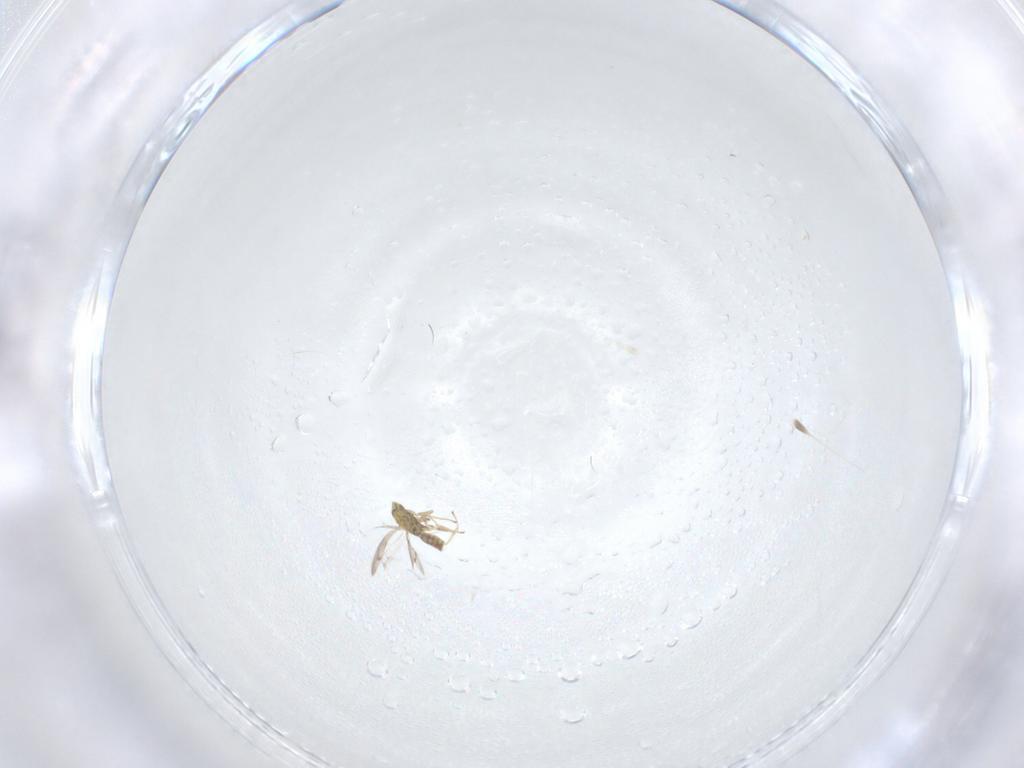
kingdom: Animalia
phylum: Arthropoda
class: Insecta
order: Hymenoptera
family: Eulophidae
